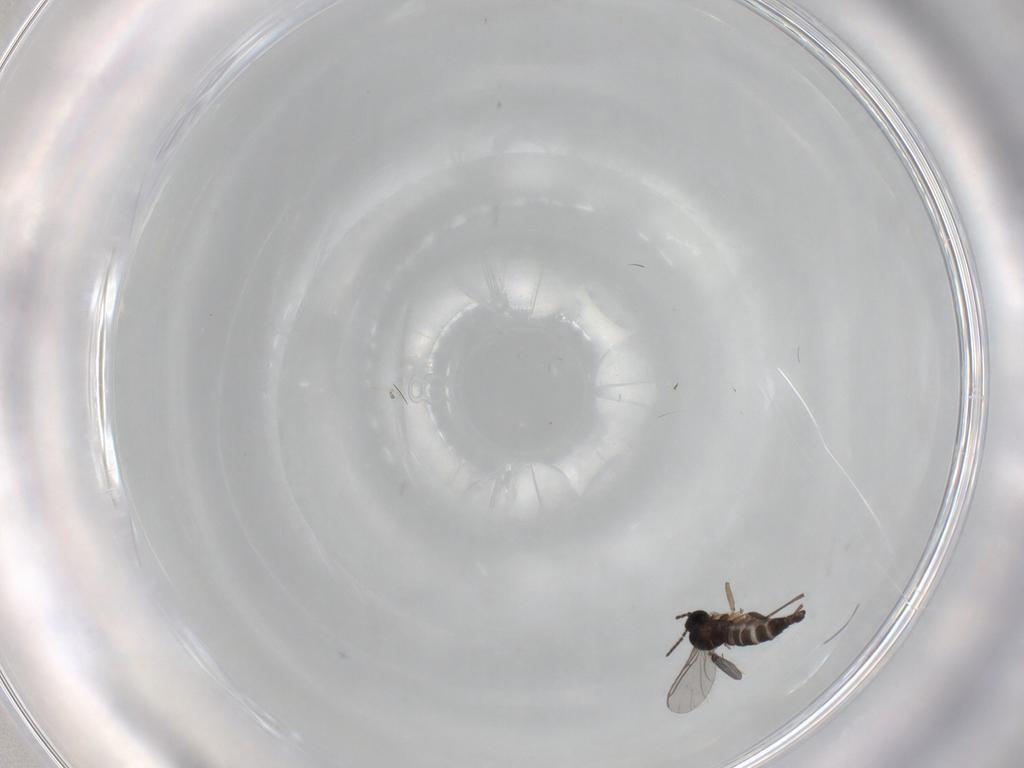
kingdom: Animalia
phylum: Arthropoda
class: Insecta
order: Diptera
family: Sciaridae
